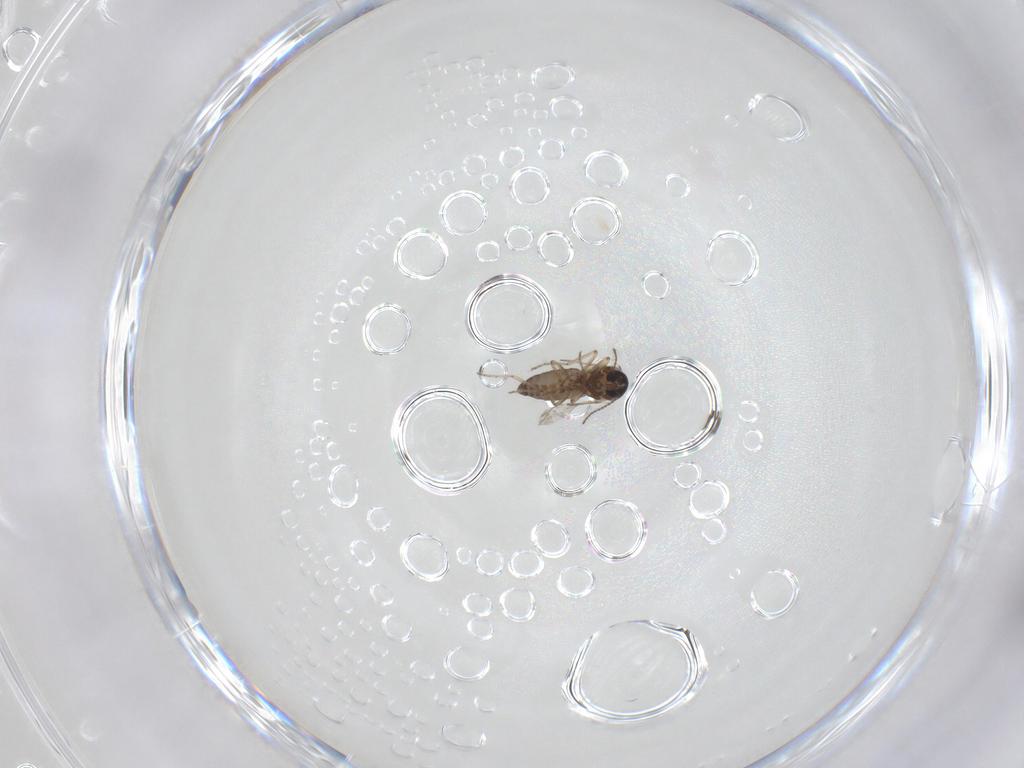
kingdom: Animalia
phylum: Arthropoda
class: Insecta
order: Diptera
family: Ceratopogonidae
